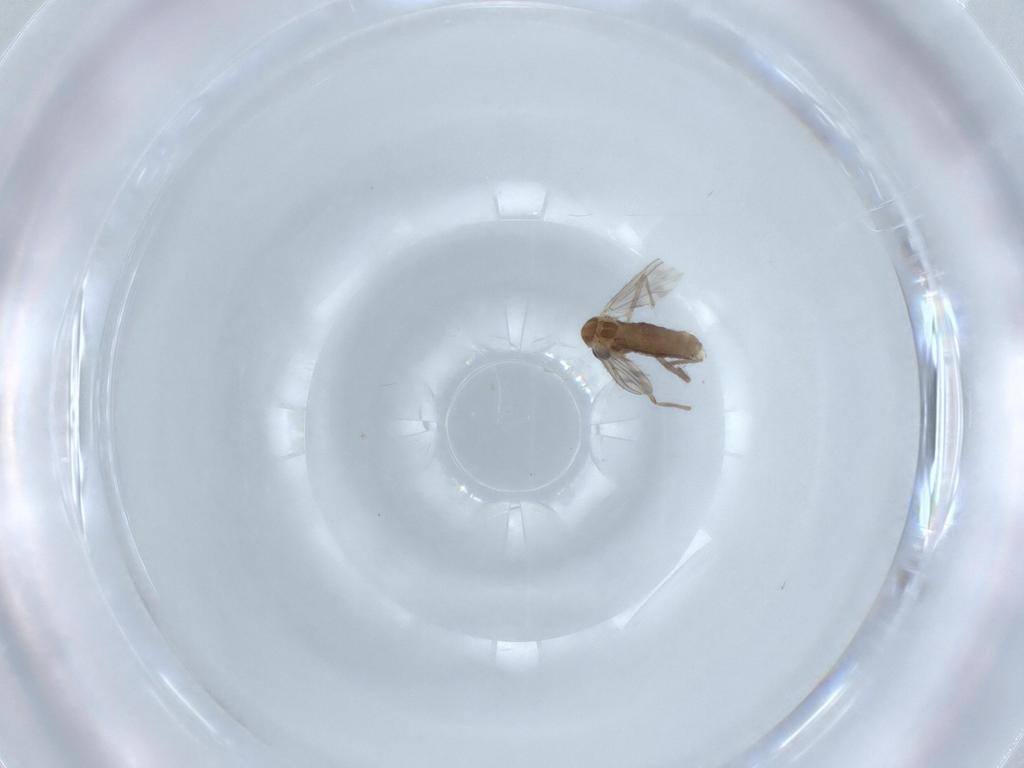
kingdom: Animalia
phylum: Arthropoda
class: Insecta
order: Diptera
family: Chironomidae
